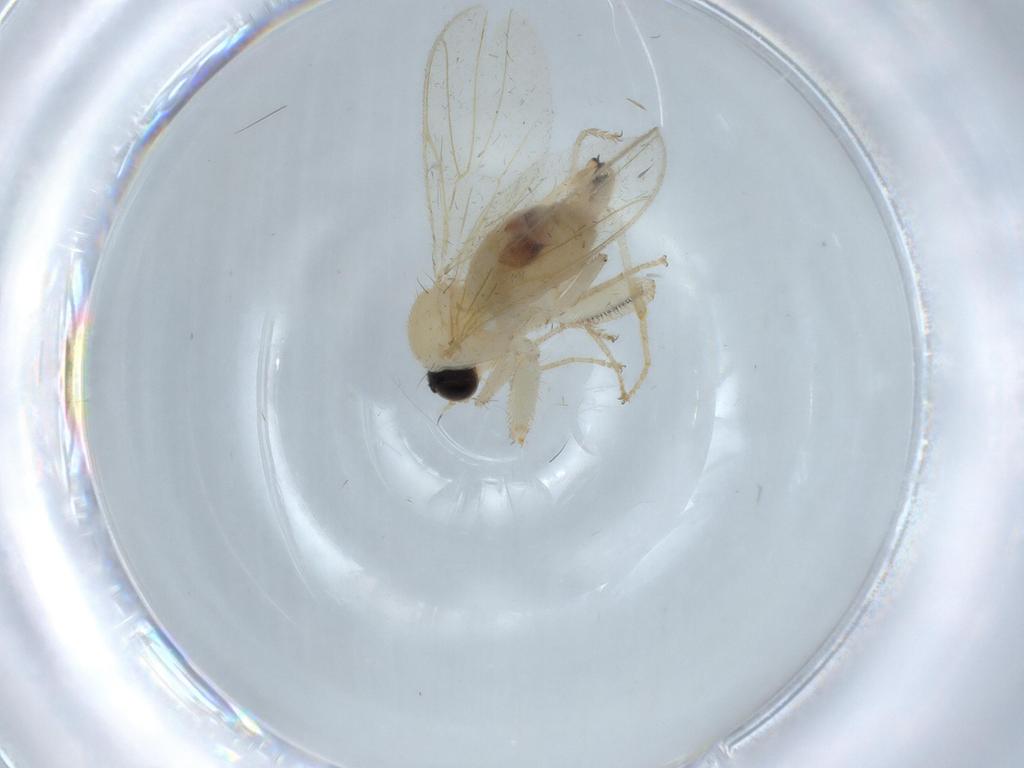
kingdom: Animalia
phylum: Arthropoda
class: Insecta
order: Diptera
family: Hybotidae
